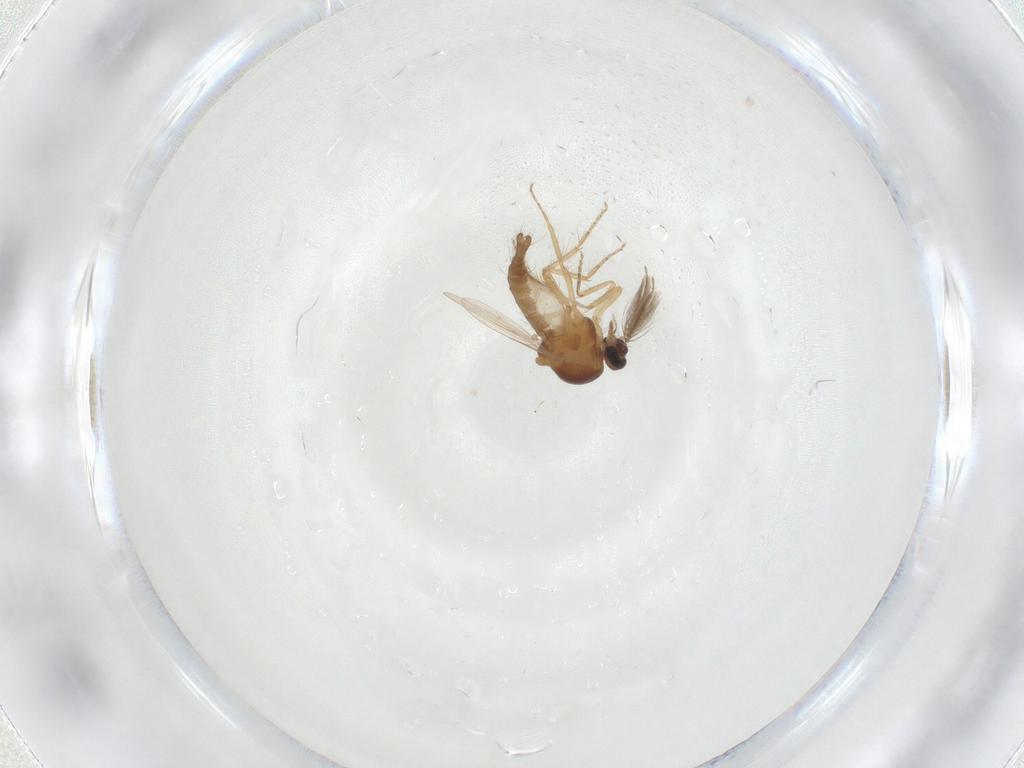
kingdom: Animalia
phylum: Arthropoda
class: Insecta
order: Diptera
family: Ceratopogonidae
